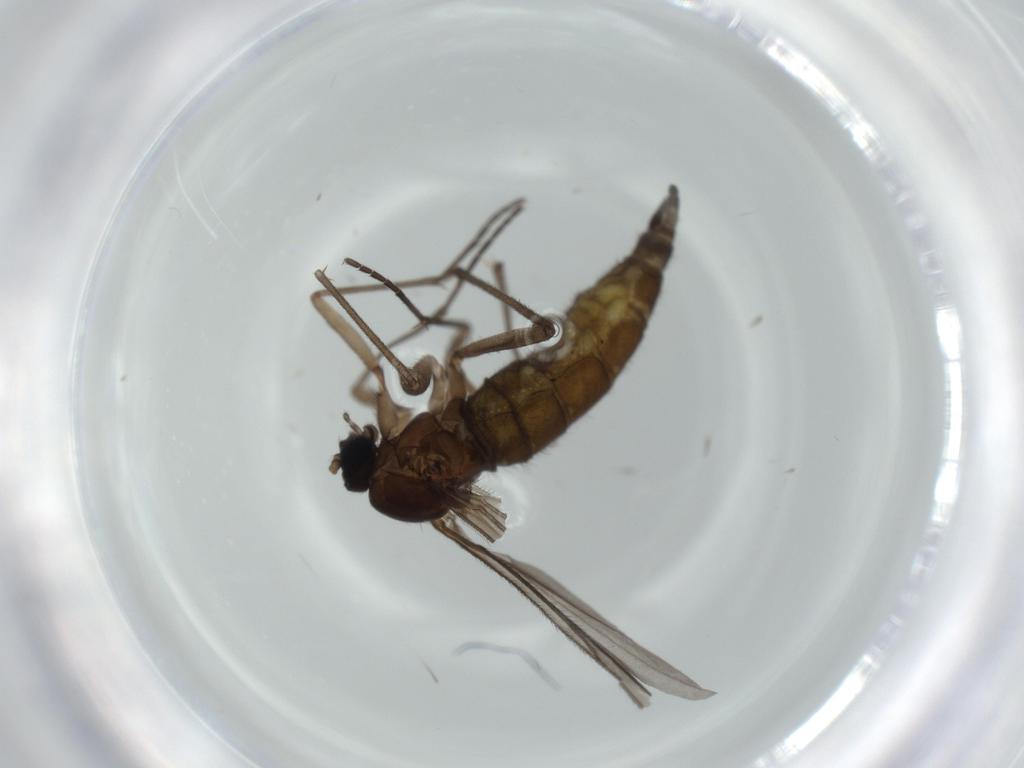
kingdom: Animalia
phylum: Arthropoda
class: Insecta
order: Diptera
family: Sciaridae
